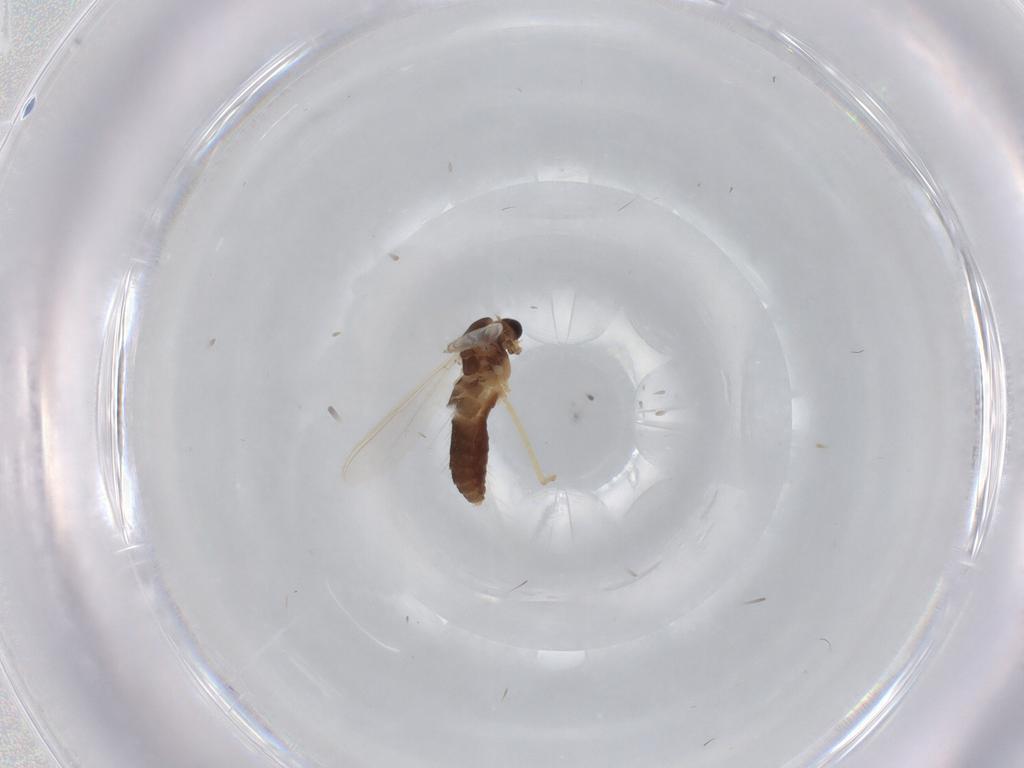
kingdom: Animalia
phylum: Arthropoda
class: Insecta
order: Diptera
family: Chironomidae
